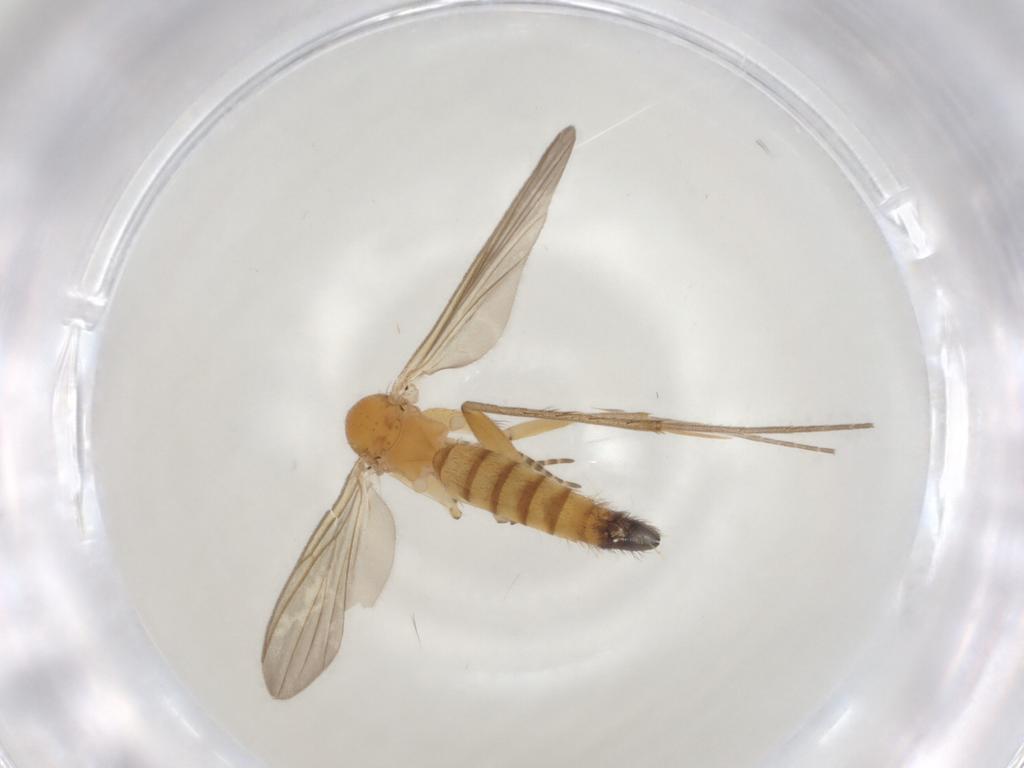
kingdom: Animalia
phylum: Arthropoda
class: Insecta
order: Diptera
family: Mycetophilidae
